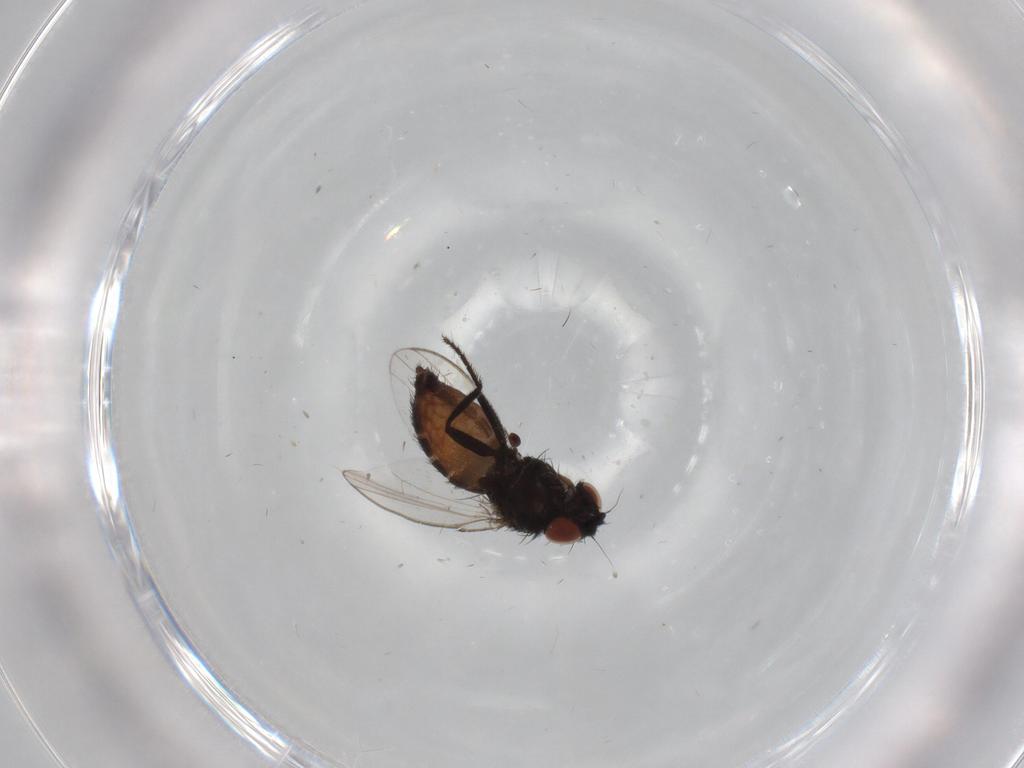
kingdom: Animalia
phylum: Arthropoda
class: Insecta
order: Diptera
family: Milichiidae
